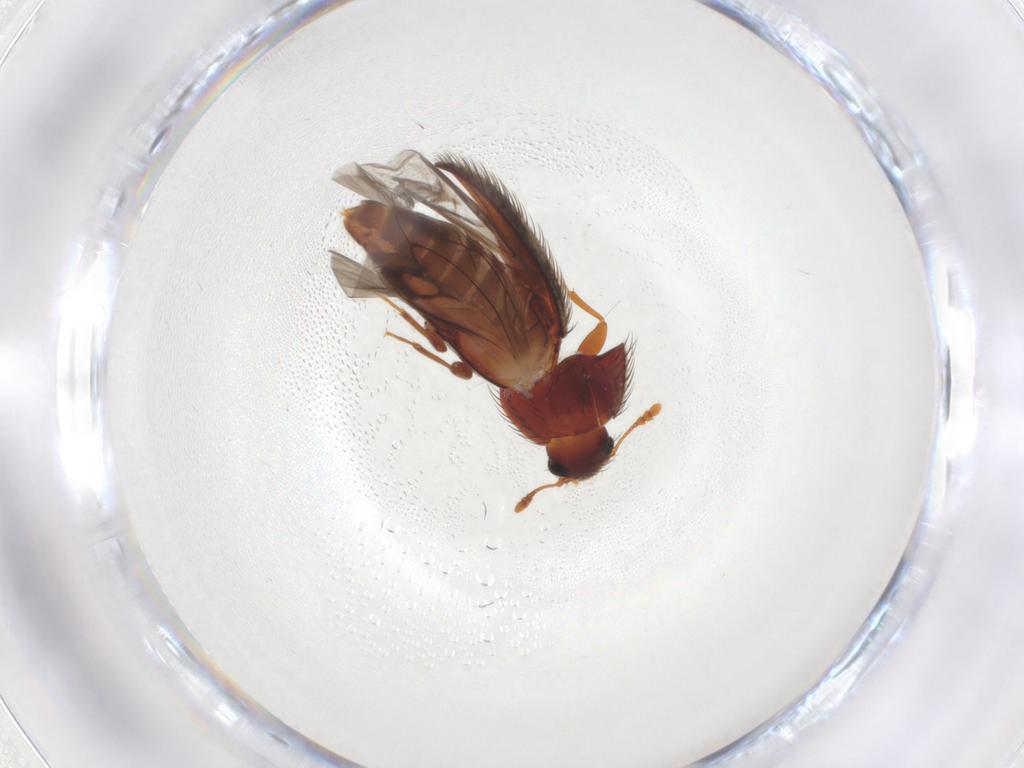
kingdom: Animalia
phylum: Arthropoda
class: Insecta
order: Coleoptera
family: Biphyllidae
